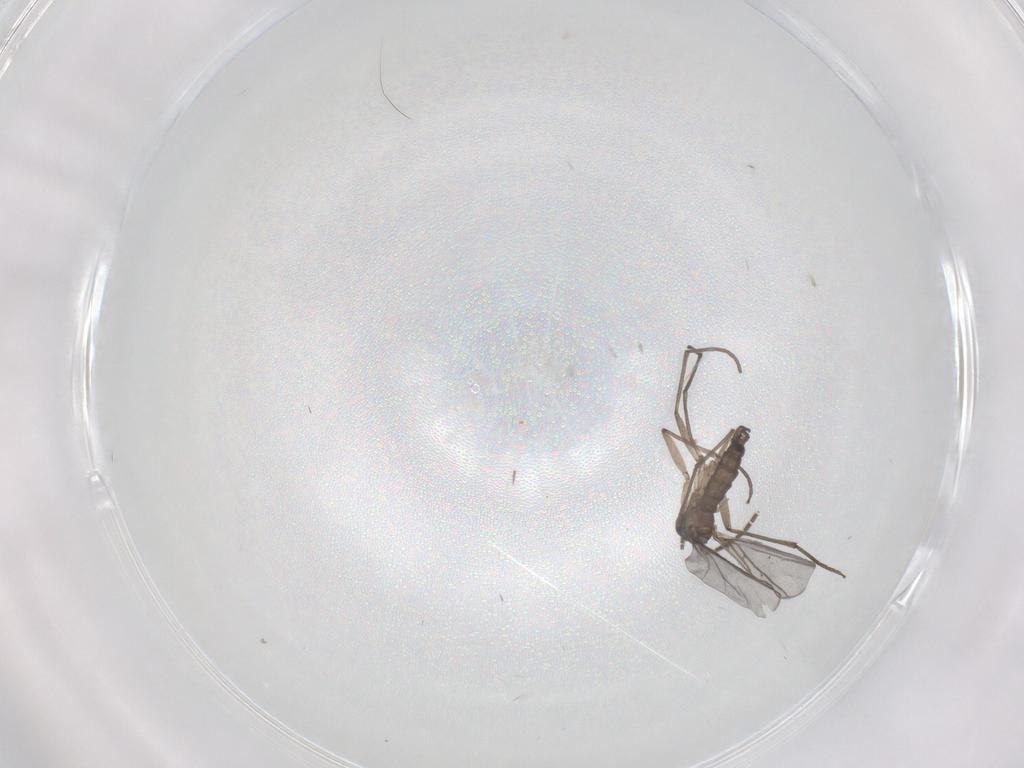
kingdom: Animalia
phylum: Arthropoda
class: Insecta
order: Diptera
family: Sciaridae
